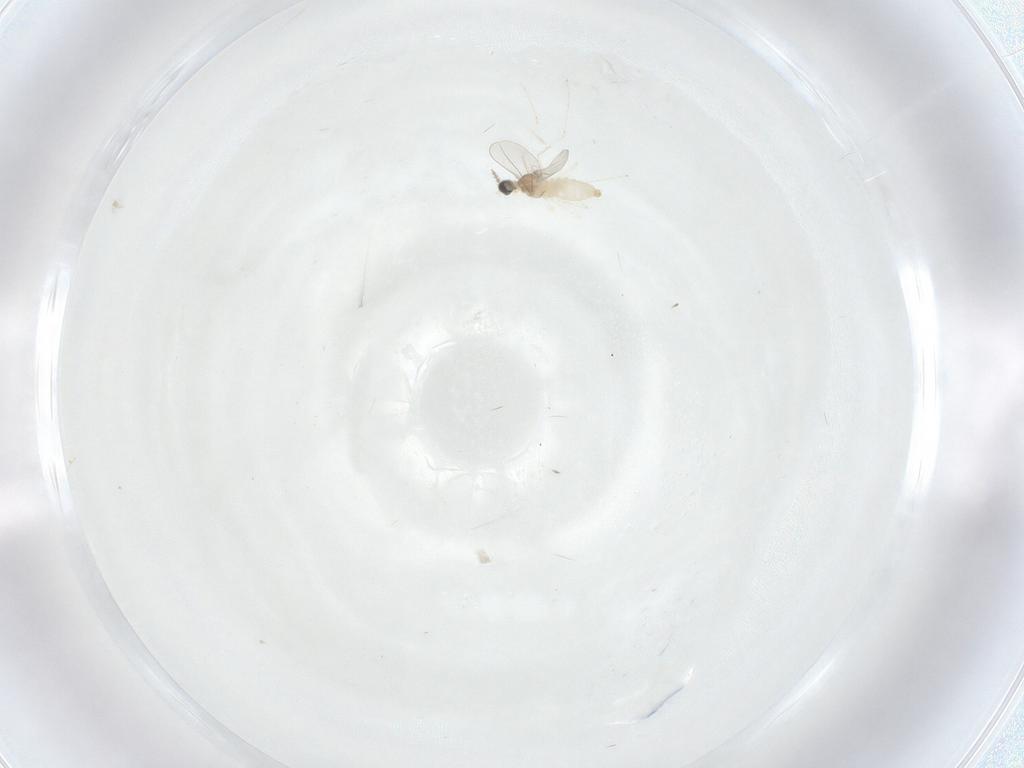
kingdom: Animalia
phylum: Arthropoda
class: Insecta
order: Diptera
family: Cecidomyiidae
